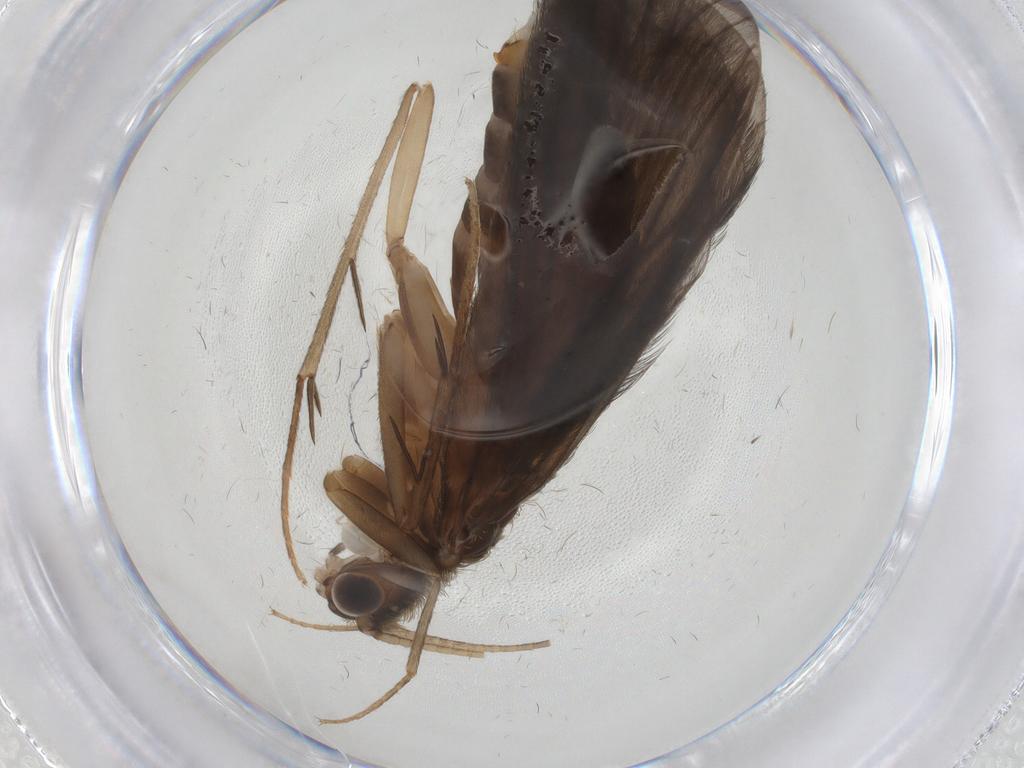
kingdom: Animalia
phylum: Arthropoda
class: Insecta
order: Trichoptera
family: Philopotamidae
